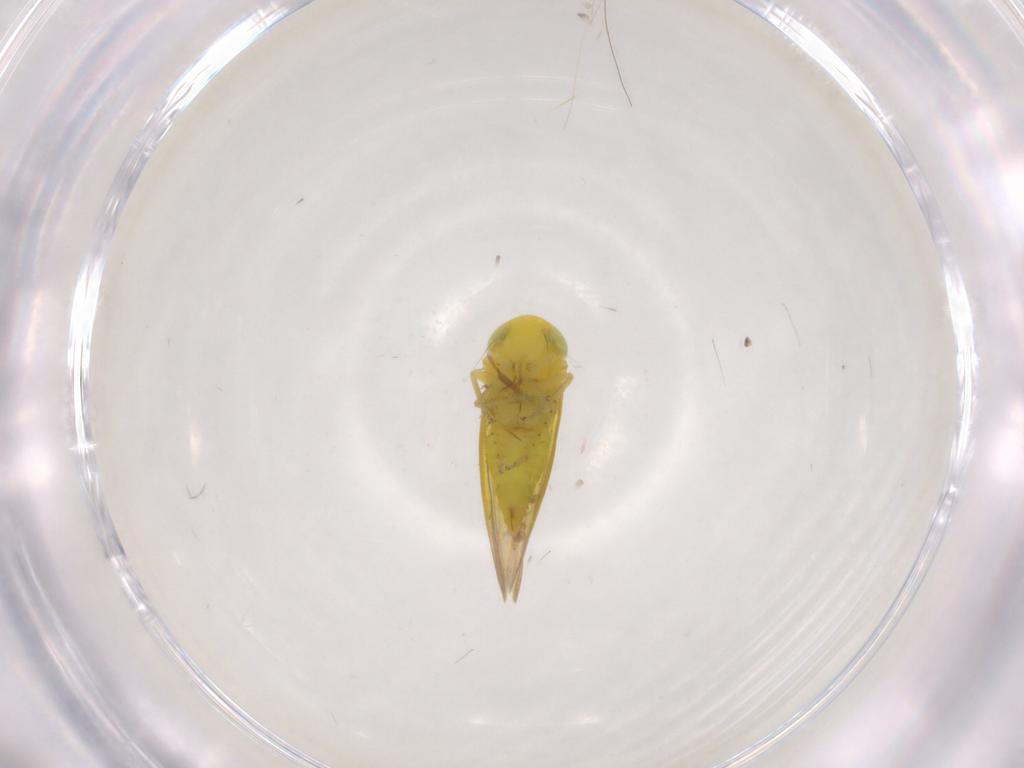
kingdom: Animalia
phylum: Arthropoda
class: Insecta
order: Hemiptera
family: Cicadellidae
